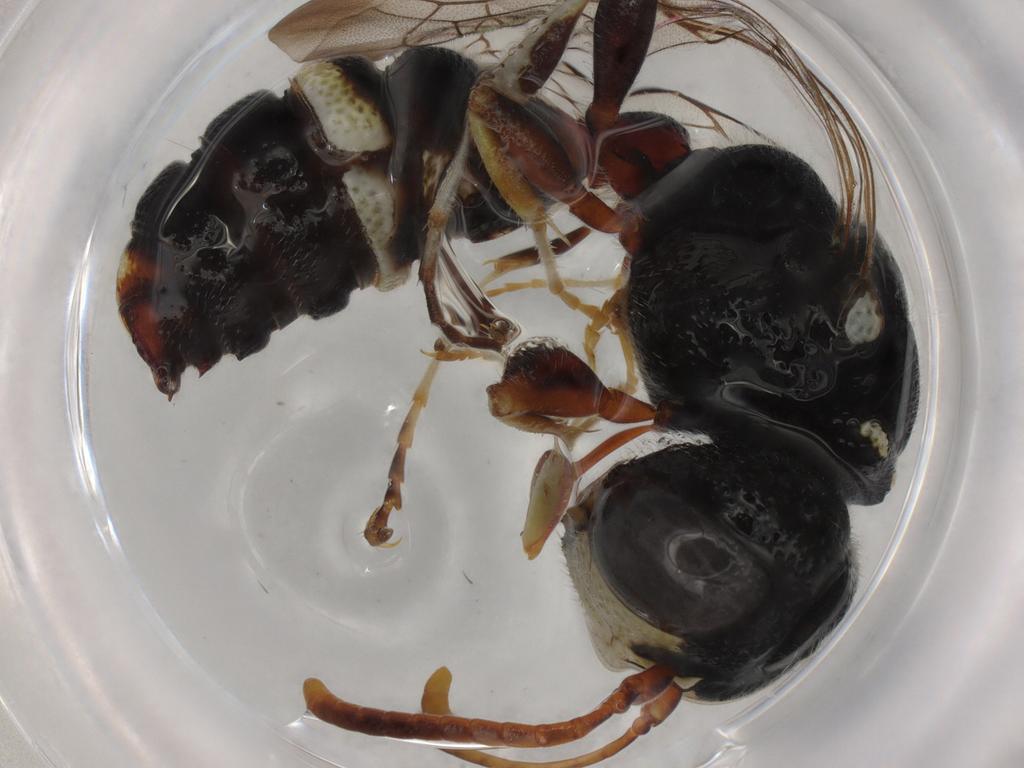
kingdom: Animalia
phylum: Arthropoda
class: Insecta
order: Hymenoptera
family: Philanthidae
